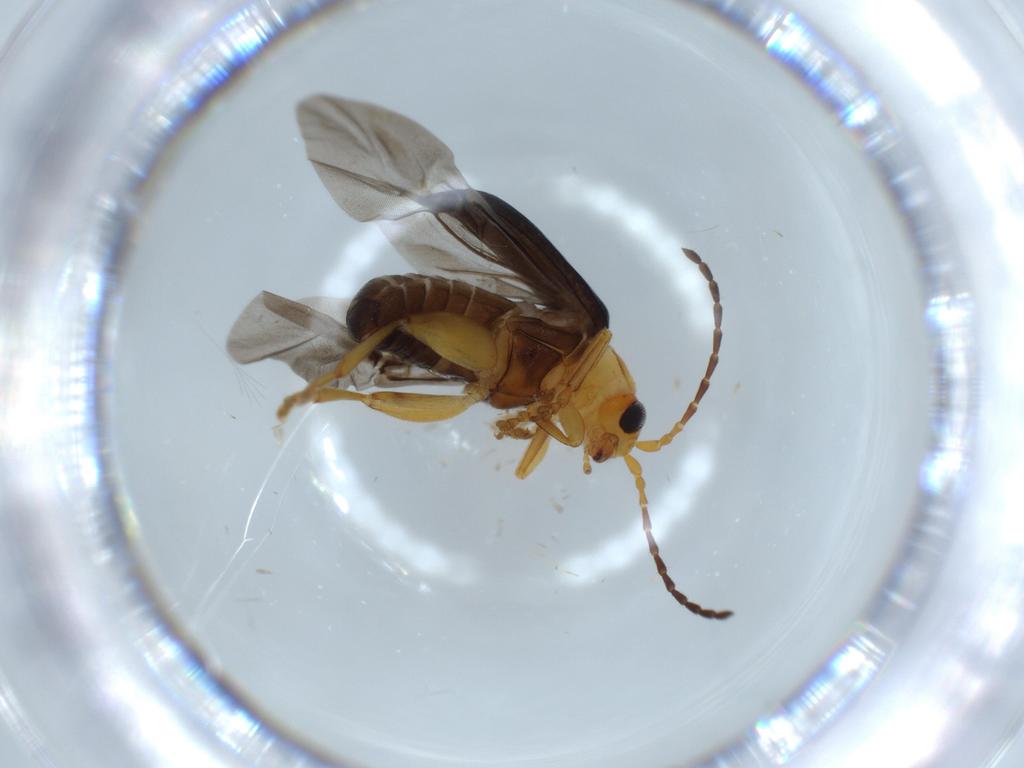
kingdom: Animalia
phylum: Arthropoda
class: Insecta
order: Coleoptera
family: Chrysomelidae
